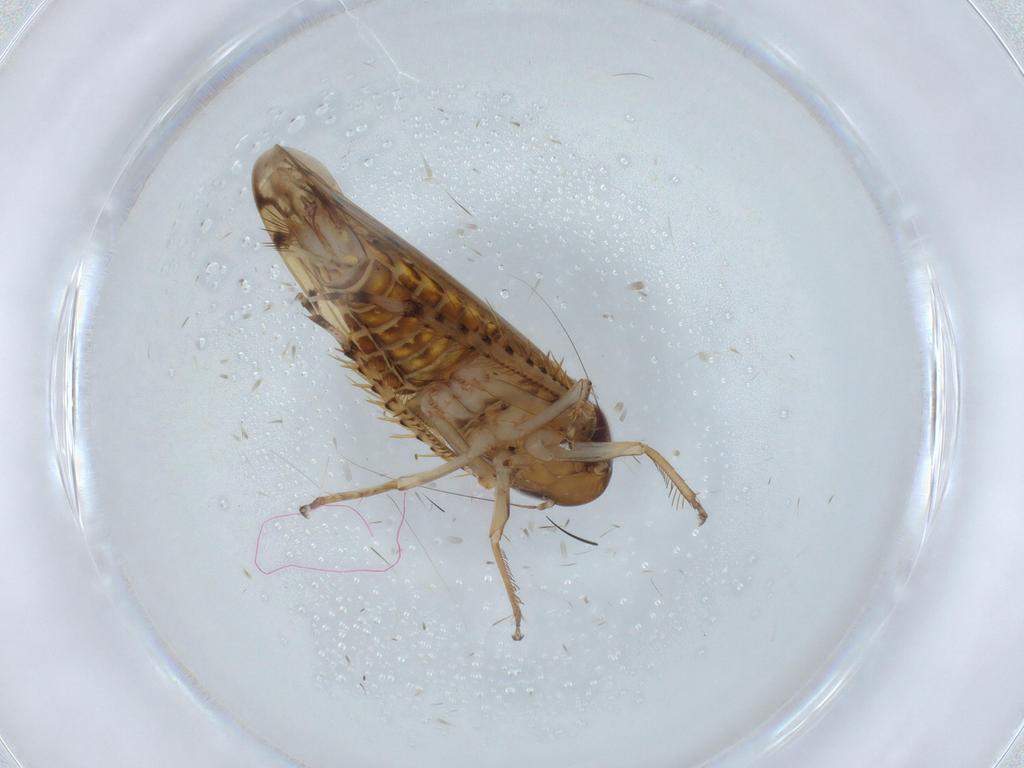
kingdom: Animalia
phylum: Arthropoda
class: Insecta
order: Hemiptera
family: Cicadellidae
